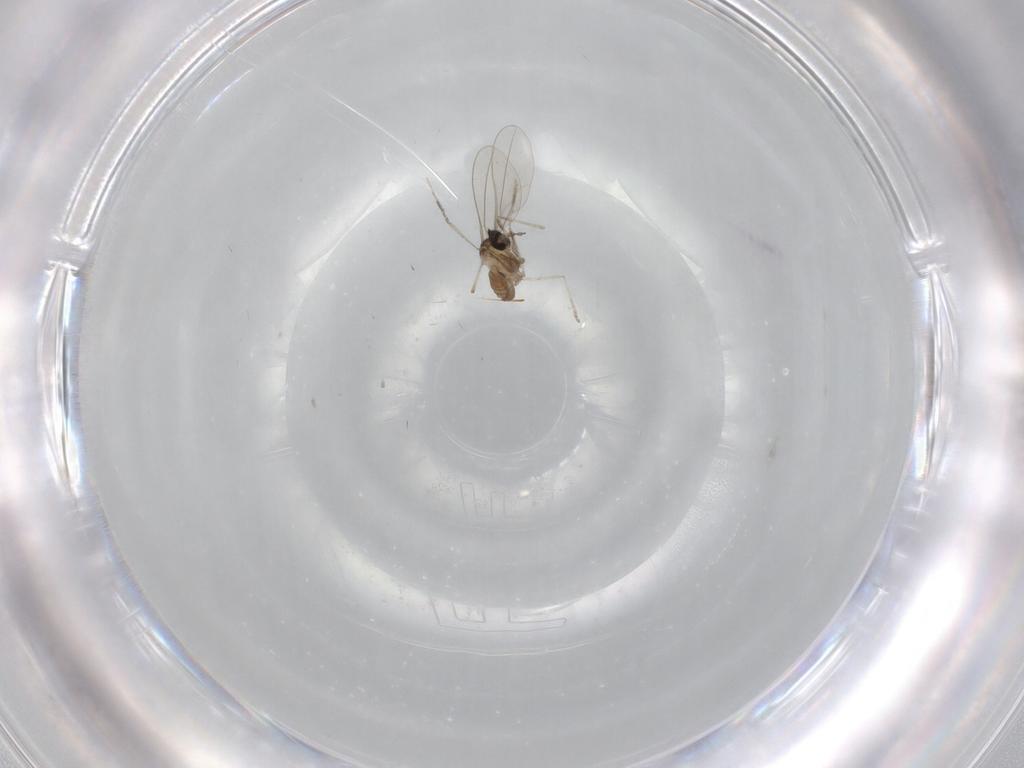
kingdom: Animalia
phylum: Arthropoda
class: Insecta
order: Diptera
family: Cecidomyiidae
